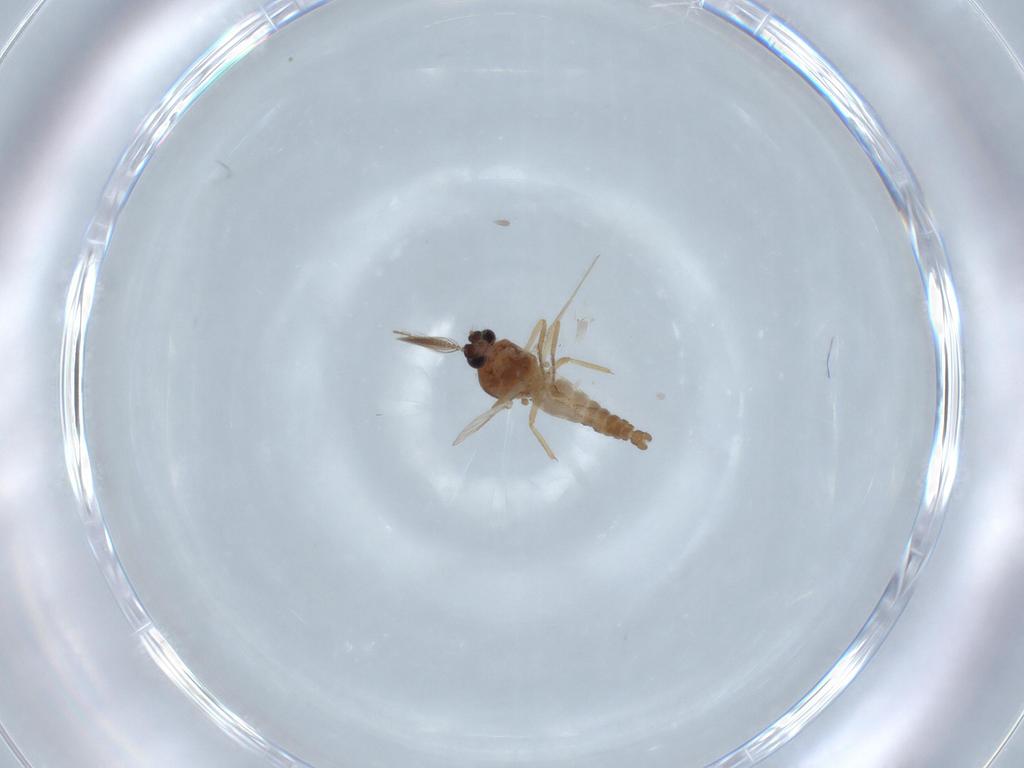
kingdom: Animalia
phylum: Arthropoda
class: Insecta
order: Diptera
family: Ceratopogonidae
